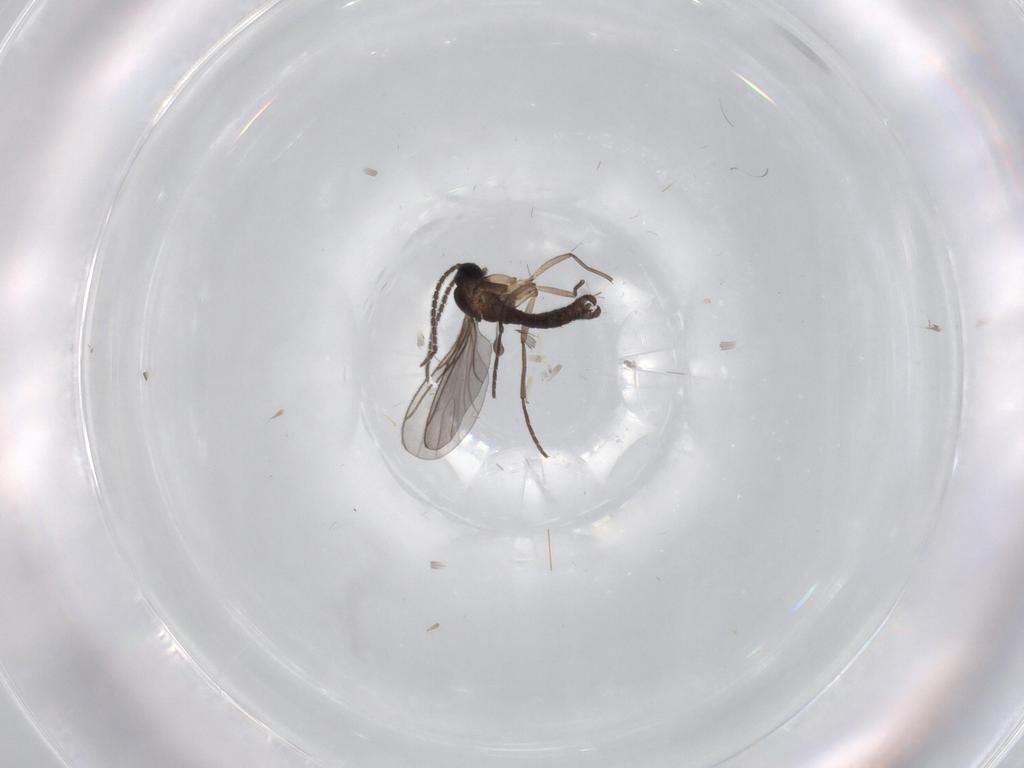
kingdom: Animalia
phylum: Arthropoda
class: Insecta
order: Diptera
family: Sciaridae
